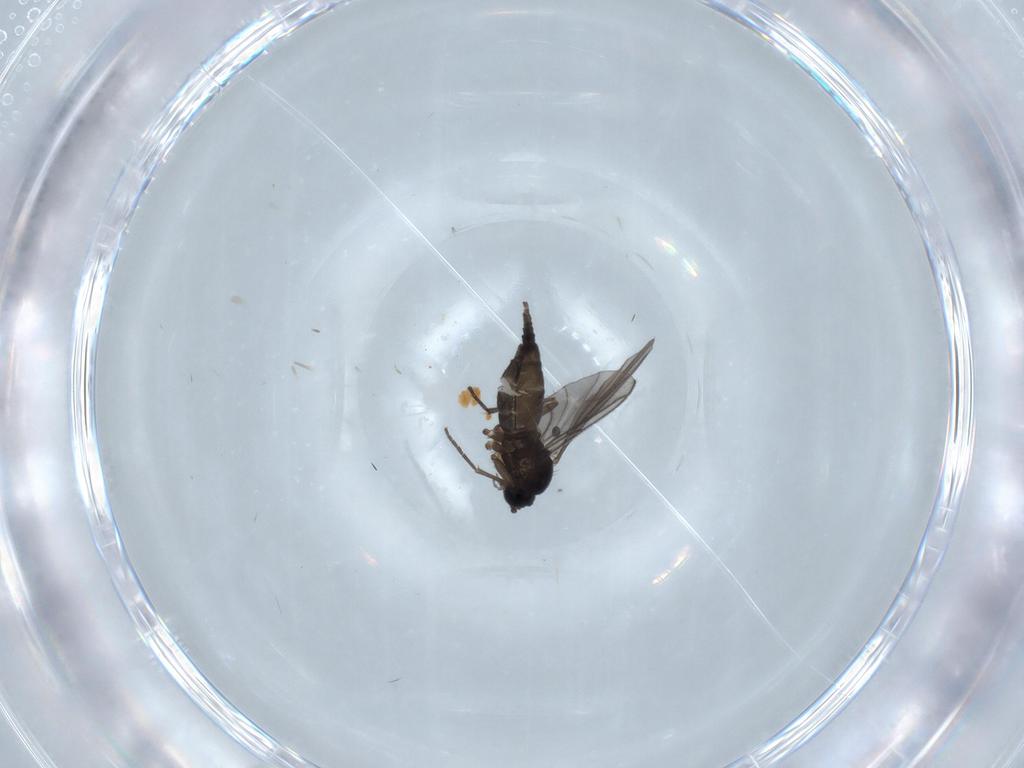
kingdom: Animalia
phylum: Arthropoda
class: Insecta
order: Diptera
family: Sciaridae
